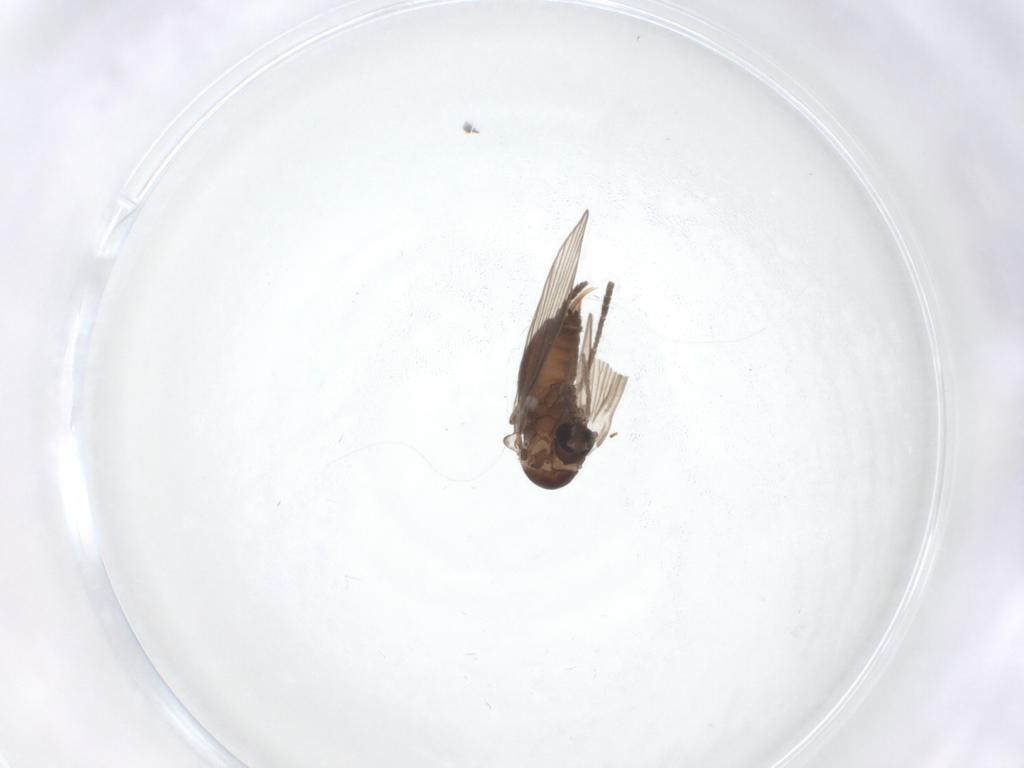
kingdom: Animalia
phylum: Arthropoda
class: Insecta
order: Diptera
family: Psychodidae
